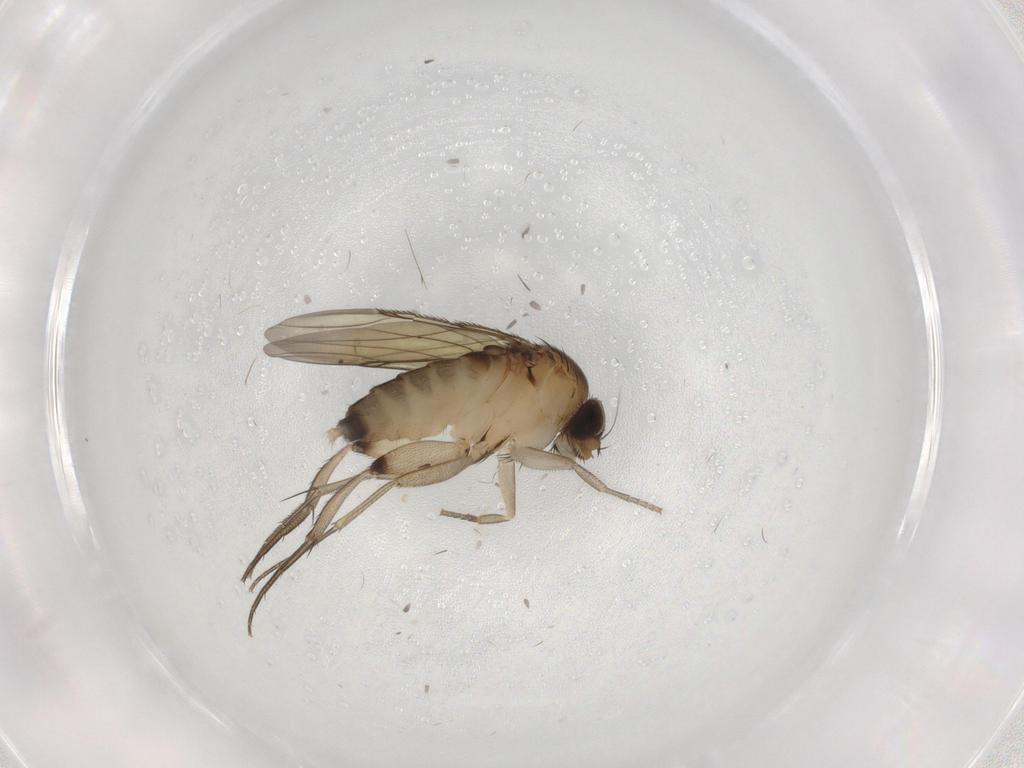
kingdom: Animalia
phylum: Arthropoda
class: Insecta
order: Diptera
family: Phoridae
